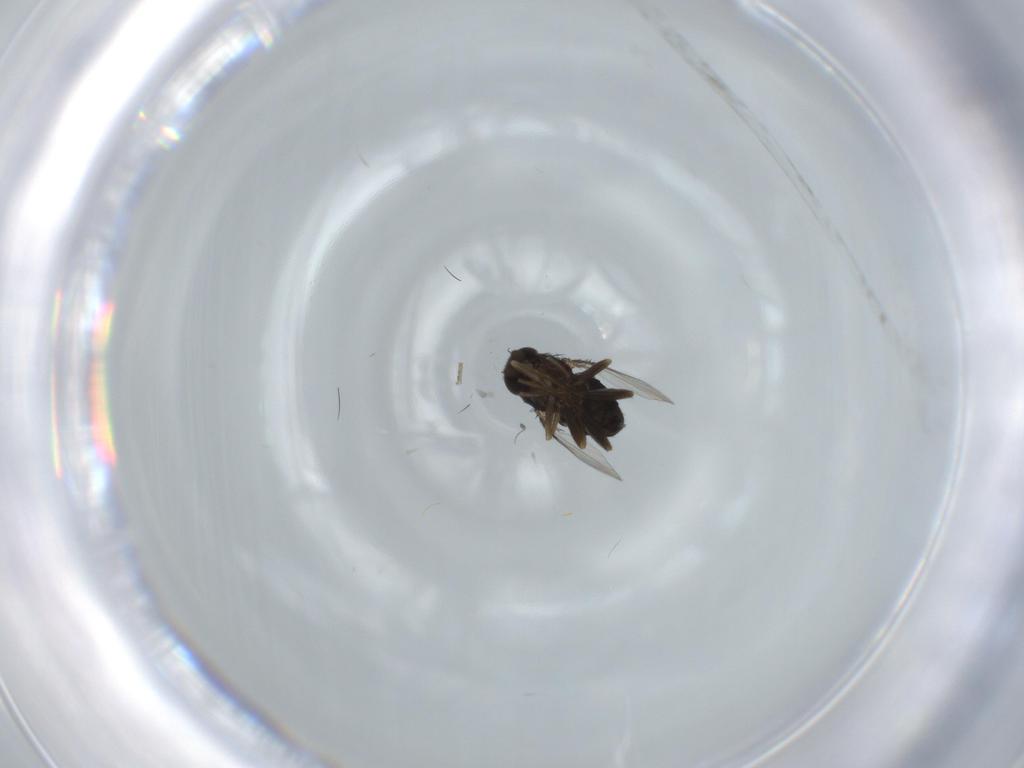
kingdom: Animalia
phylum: Arthropoda
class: Insecta
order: Diptera
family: Phoridae
